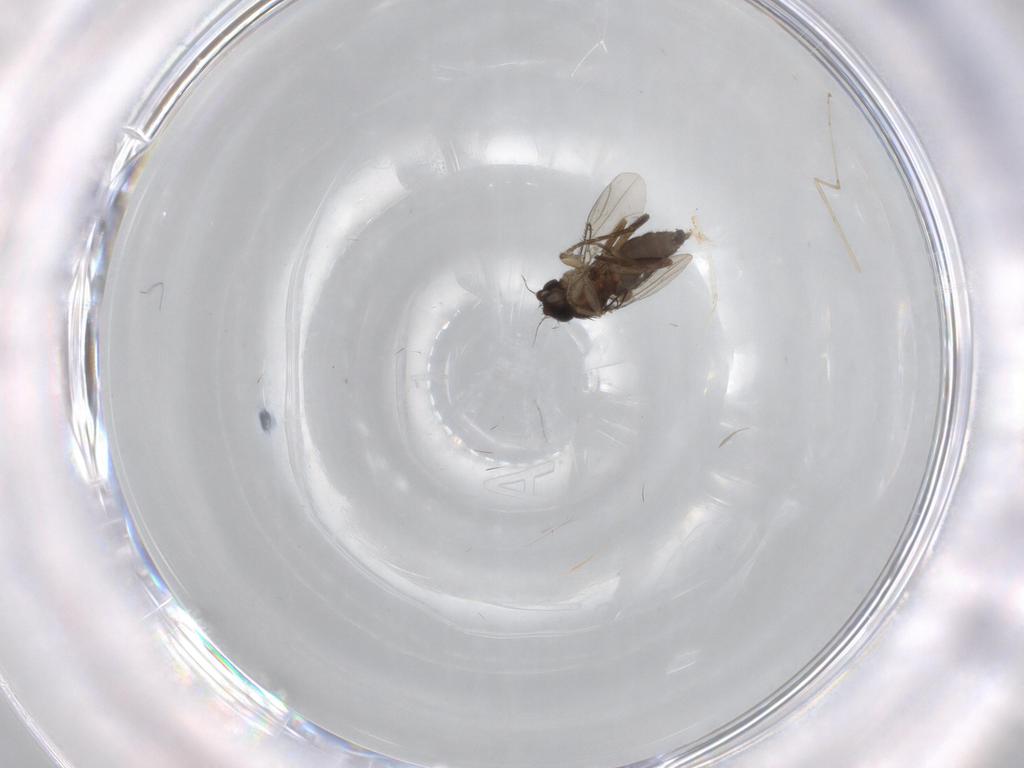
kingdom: Animalia
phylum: Arthropoda
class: Insecta
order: Diptera
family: Phoridae
